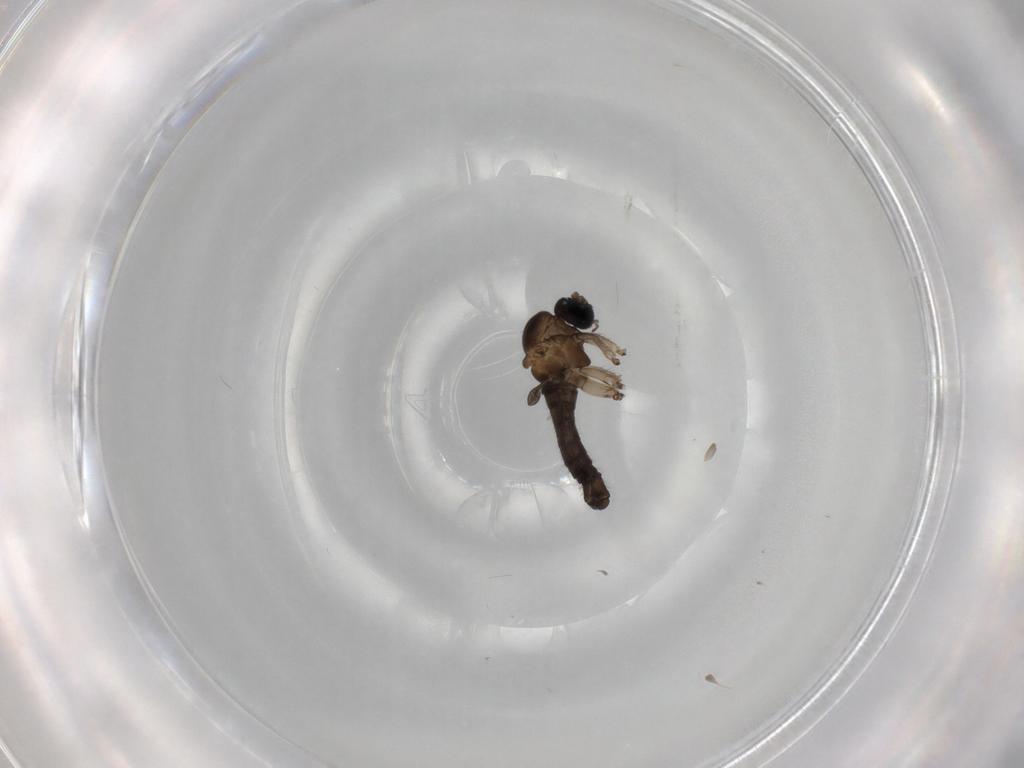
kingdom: Animalia
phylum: Arthropoda
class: Insecta
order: Diptera
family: Sciaridae
